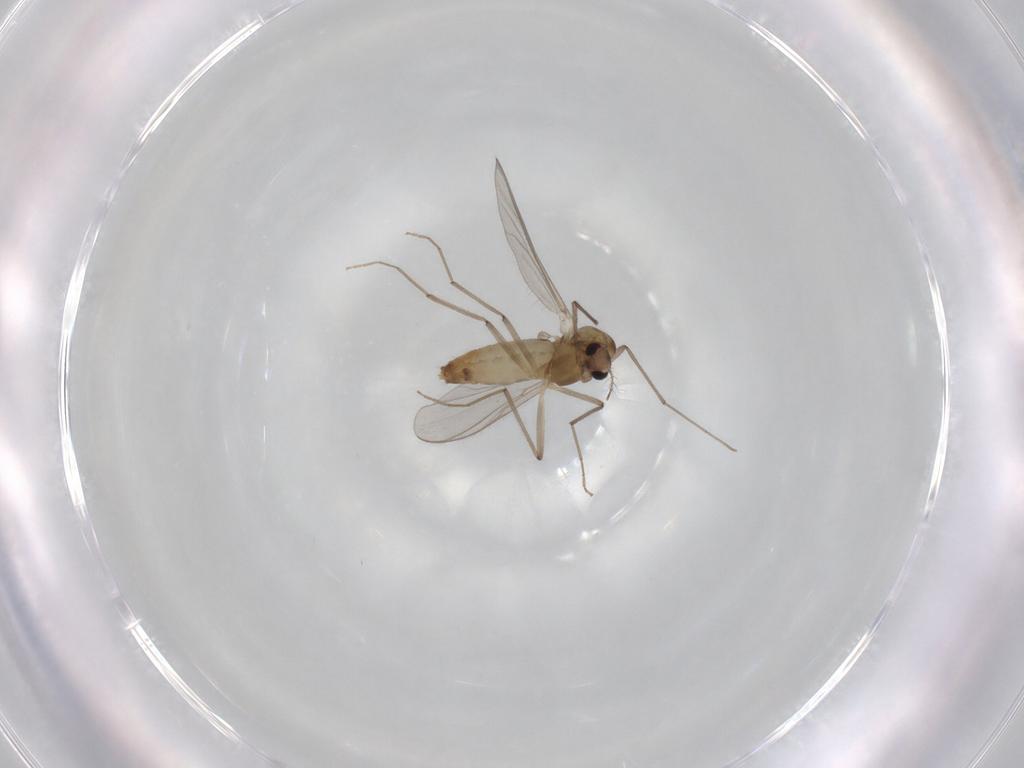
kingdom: Animalia
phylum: Arthropoda
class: Insecta
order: Diptera
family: Chironomidae
